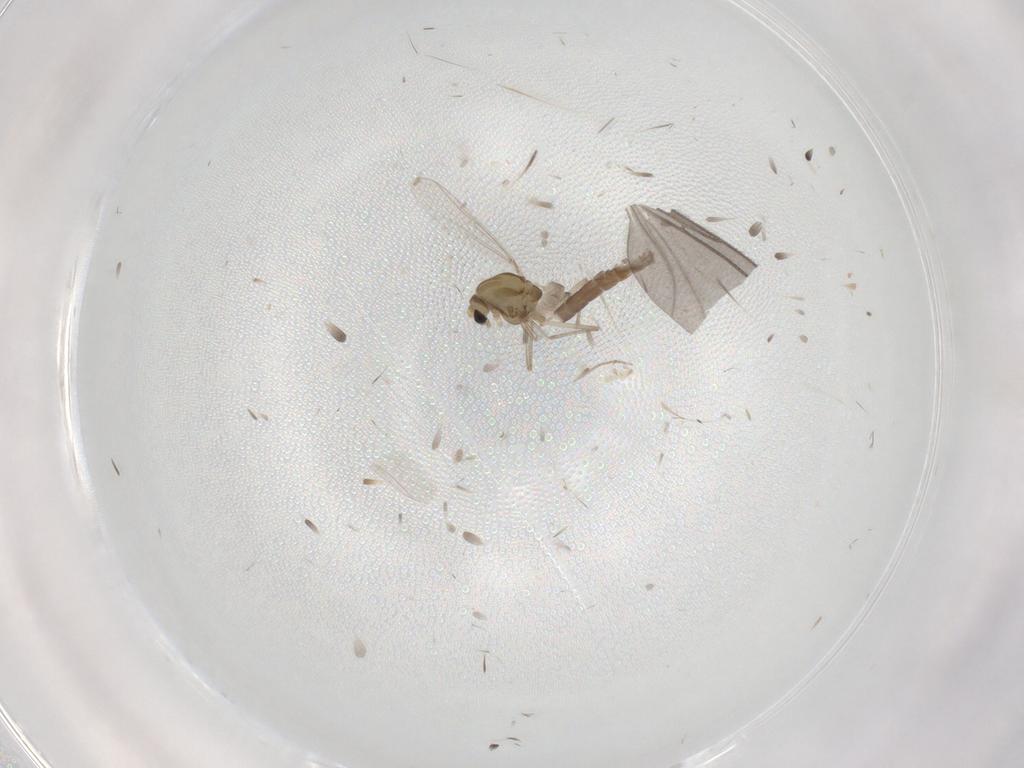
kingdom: Animalia
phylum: Arthropoda
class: Insecta
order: Diptera
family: Chironomidae
